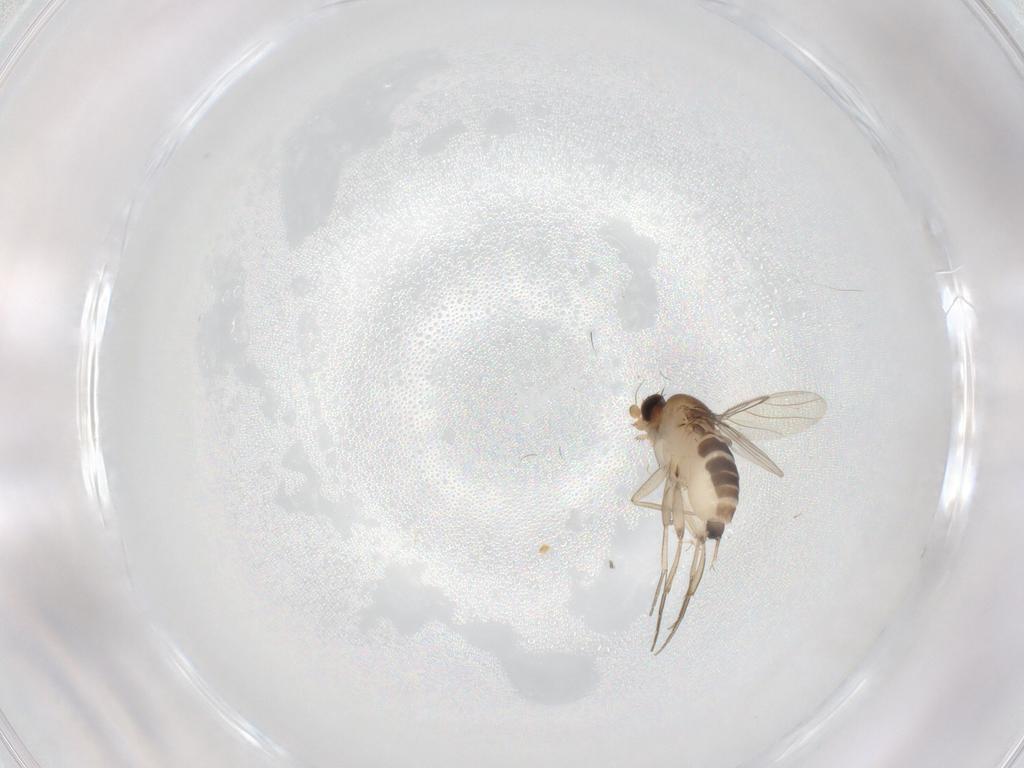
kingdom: Animalia
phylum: Arthropoda
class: Insecta
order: Diptera
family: Phoridae
